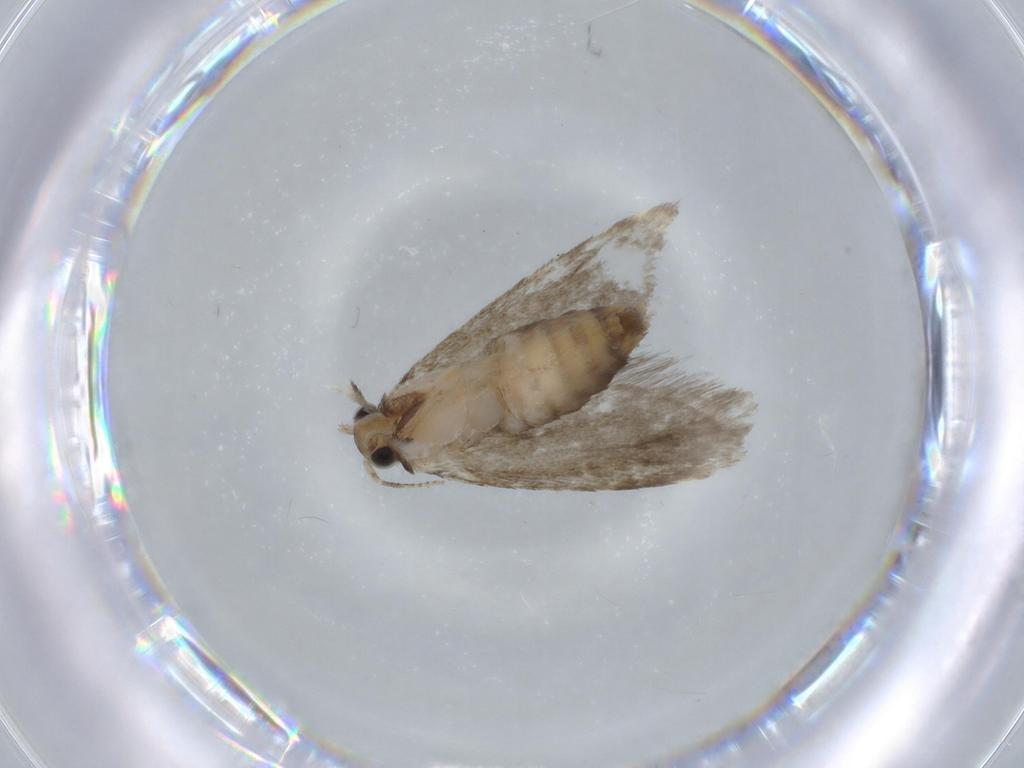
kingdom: Animalia
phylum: Arthropoda
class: Insecta
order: Lepidoptera
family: Tineidae
